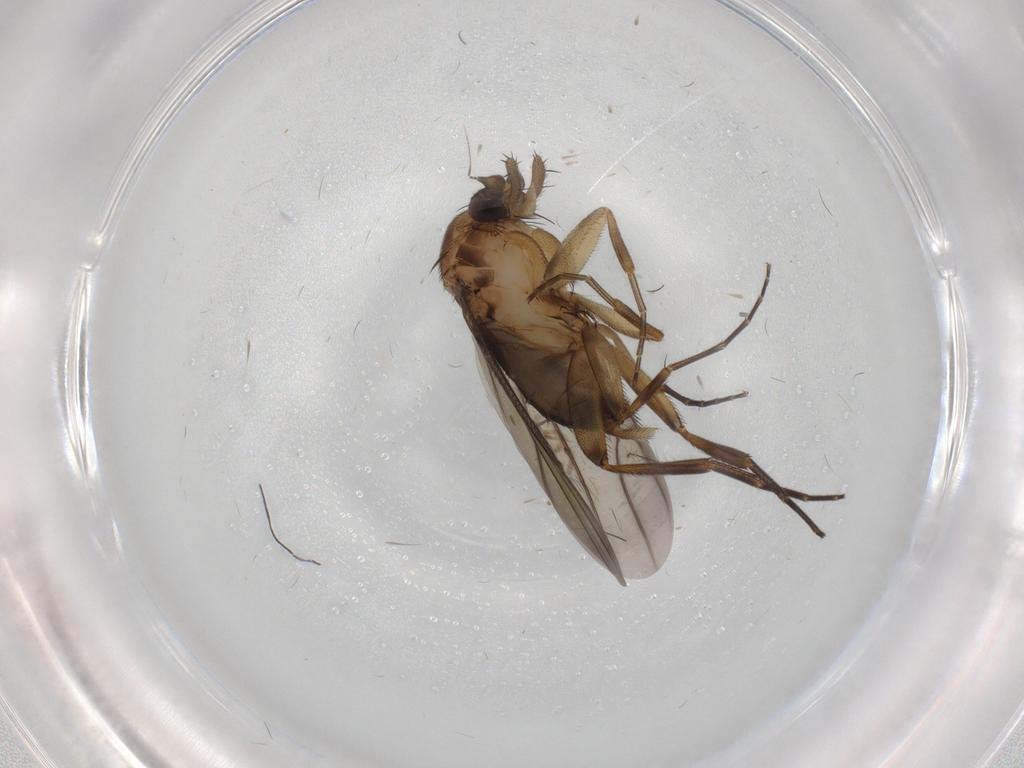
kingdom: Animalia
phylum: Arthropoda
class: Insecta
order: Diptera
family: Phoridae
